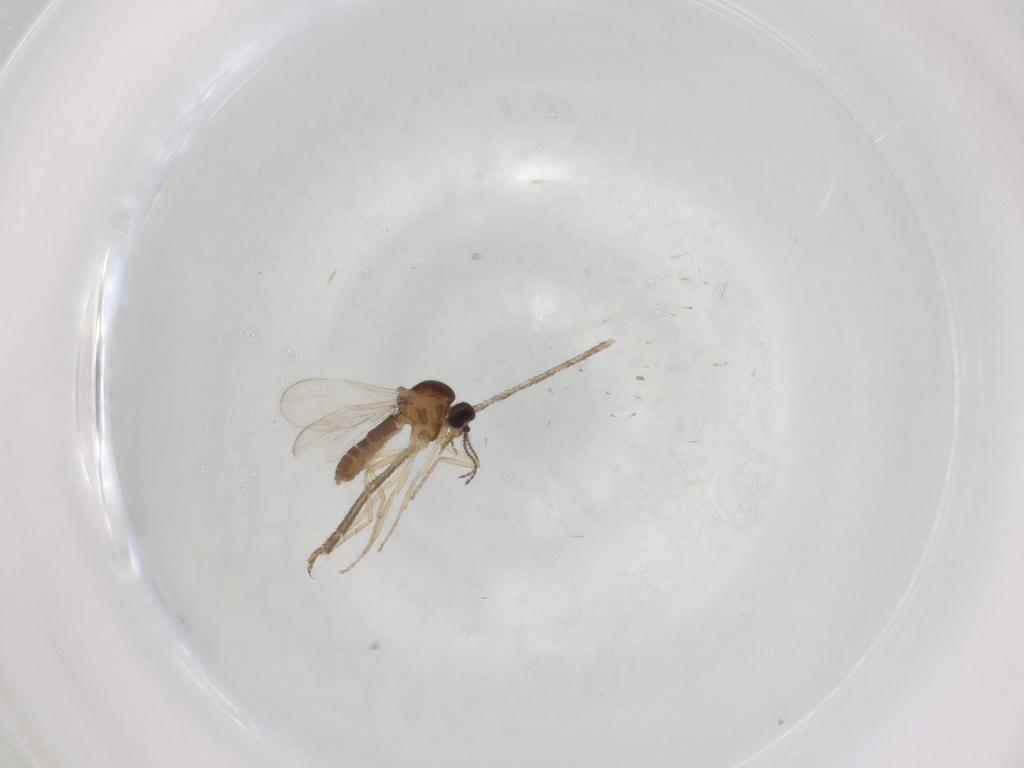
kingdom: Animalia
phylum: Arthropoda
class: Insecta
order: Diptera
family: Culicidae
